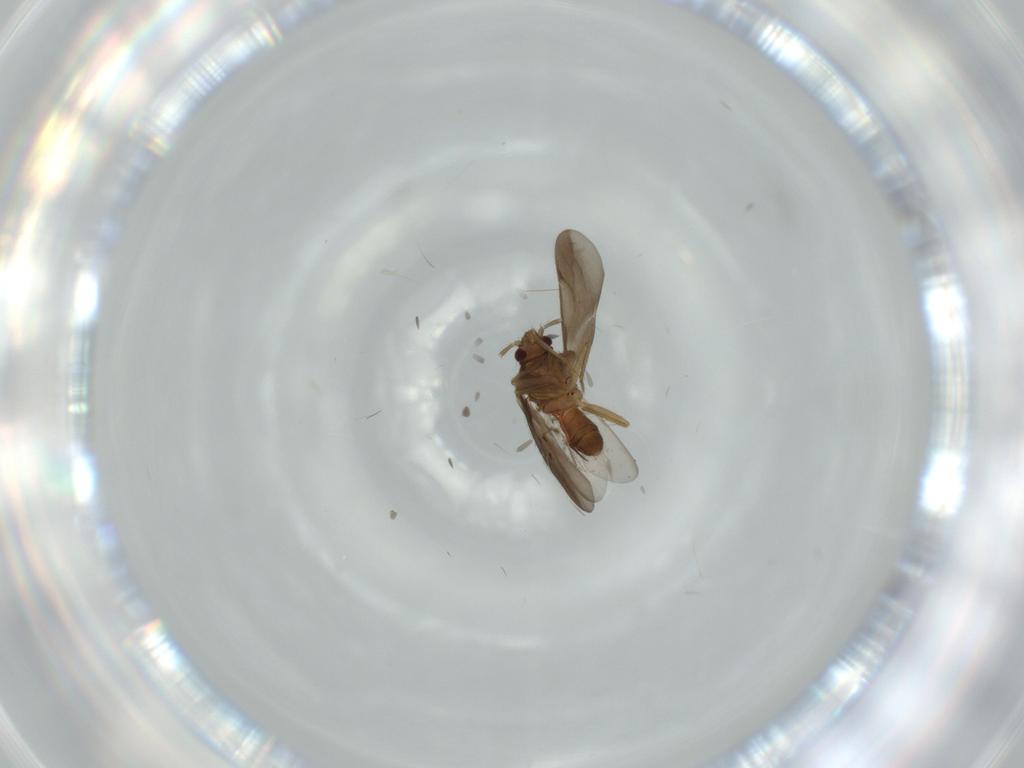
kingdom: Animalia
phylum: Arthropoda
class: Insecta
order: Hemiptera
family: Ceratocombidae
